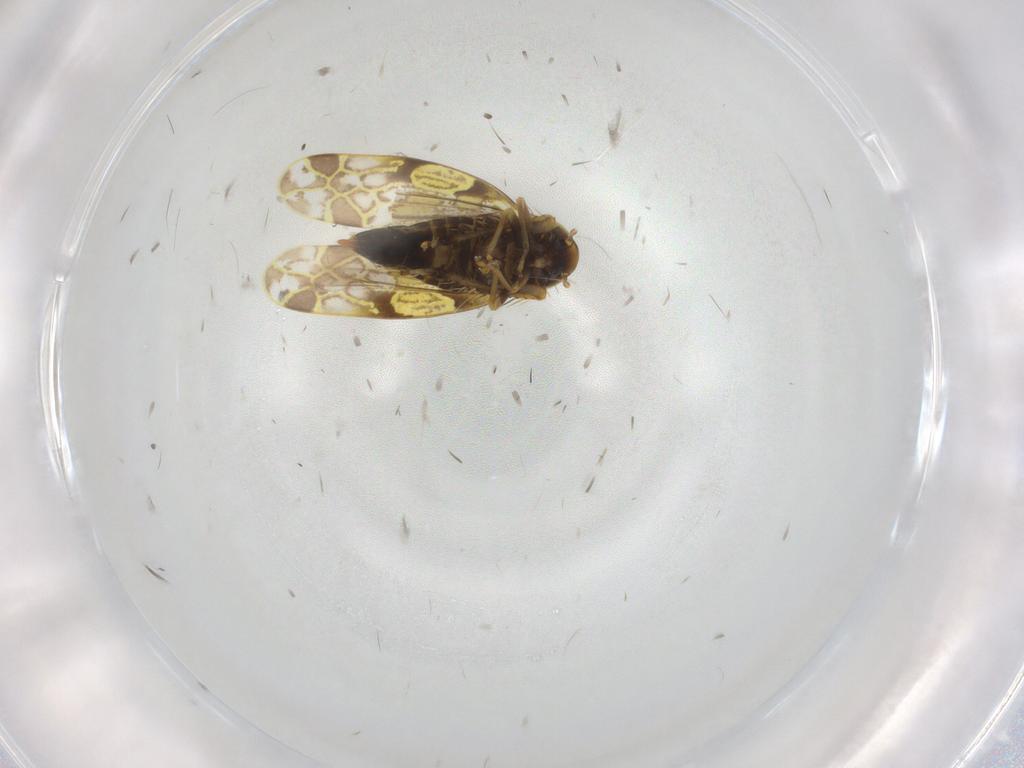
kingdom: Animalia
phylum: Arthropoda
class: Insecta
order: Hemiptera
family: Cicadellidae
